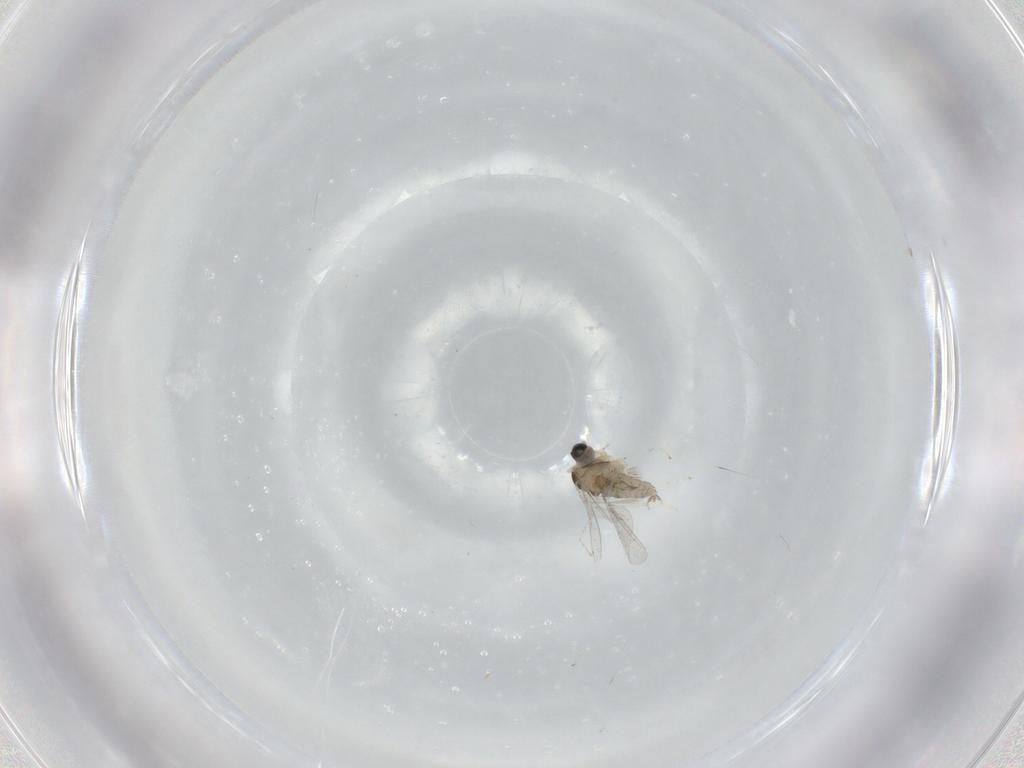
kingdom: Animalia
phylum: Arthropoda
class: Insecta
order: Diptera
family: Cecidomyiidae
